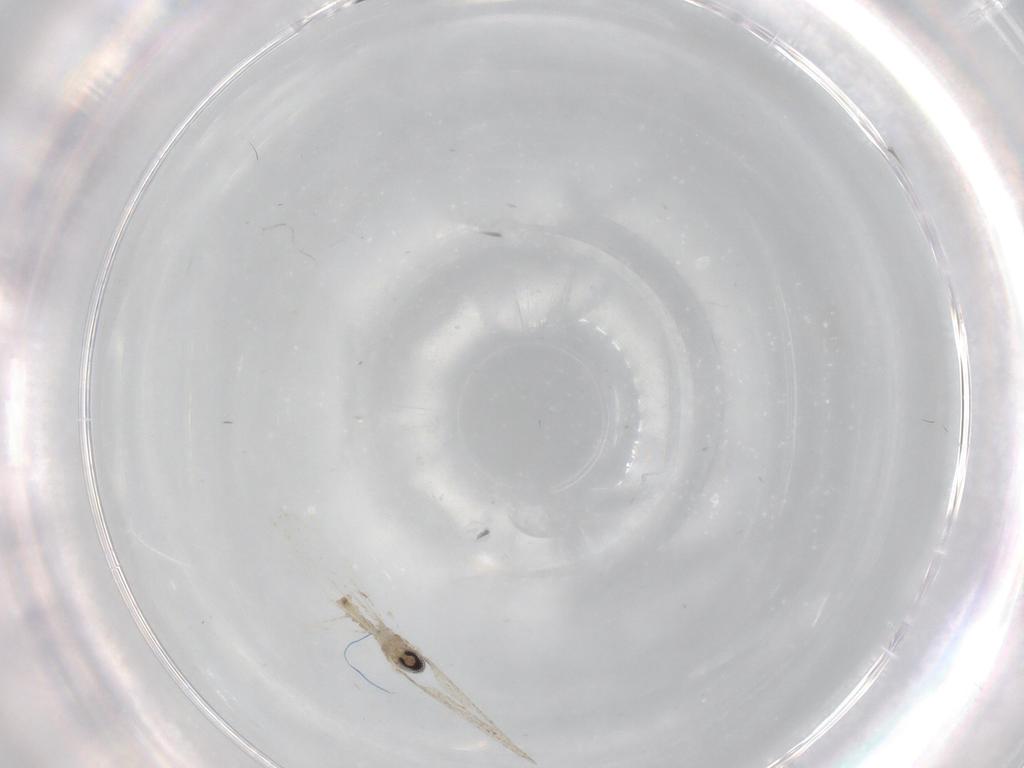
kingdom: Animalia
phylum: Arthropoda
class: Insecta
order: Diptera
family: Cecidomyiidae
